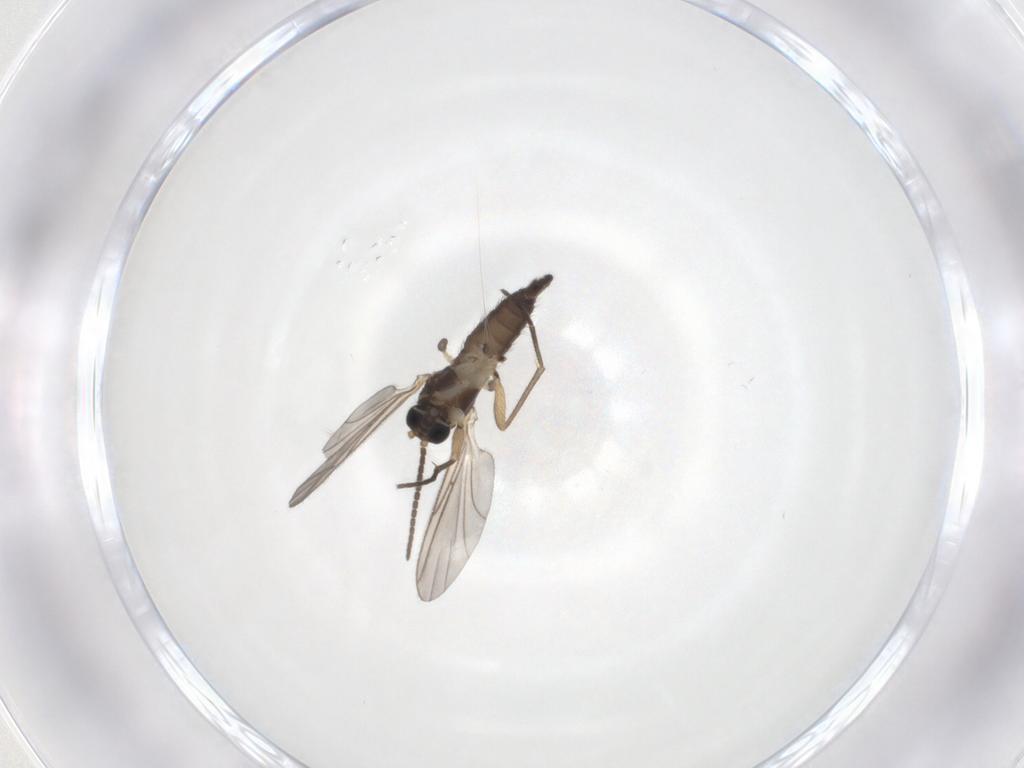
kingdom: Animalia
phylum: Arthropoda
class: Insecta
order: Diptera
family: Sciaridae
